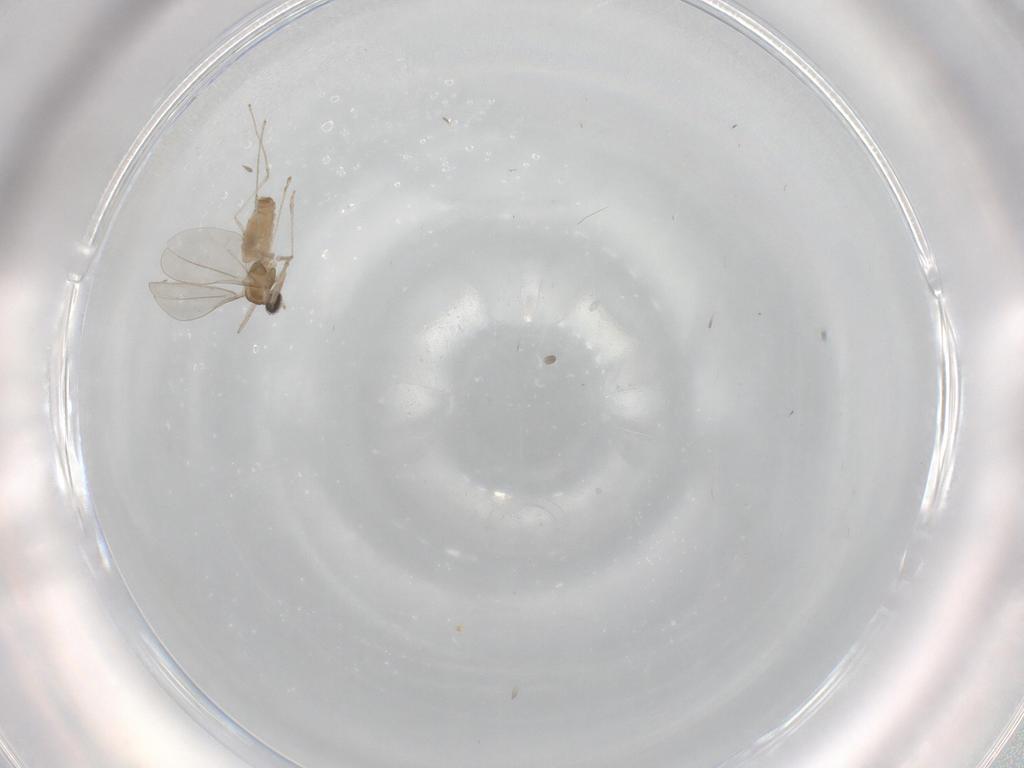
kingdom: Animalia
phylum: Arthropoda
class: Insecta
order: Diptera
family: Cecidomyiidae
